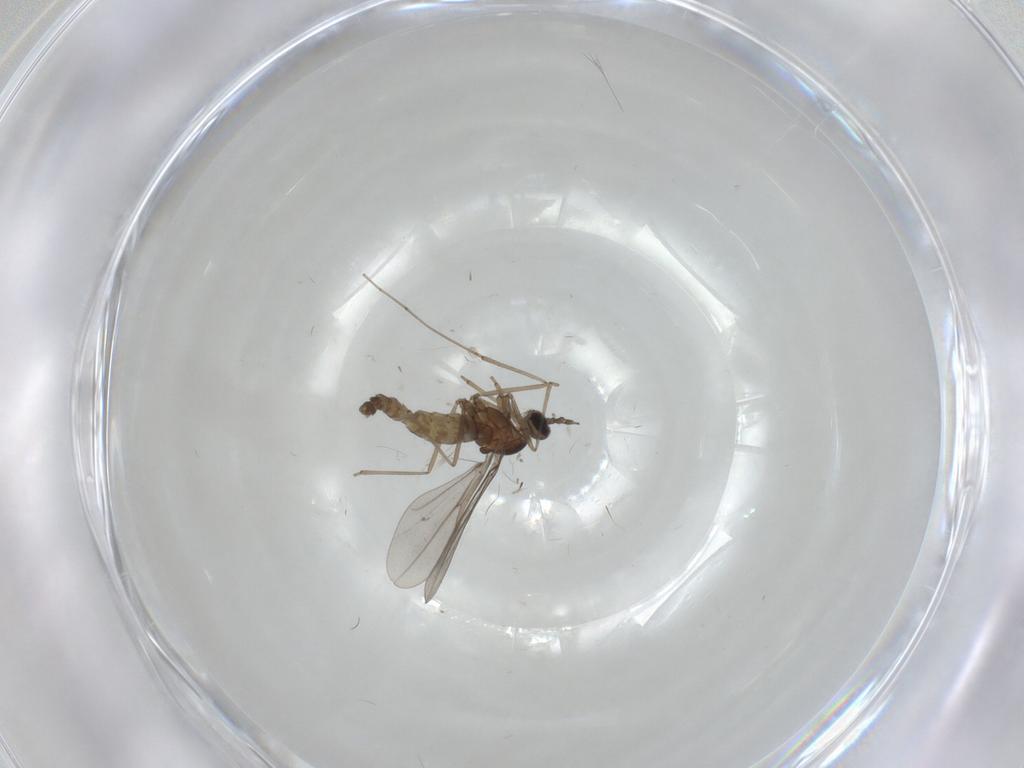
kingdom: Animalia
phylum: Arthropoda
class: Insecta
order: Diptera
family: Cecidomyiidae
